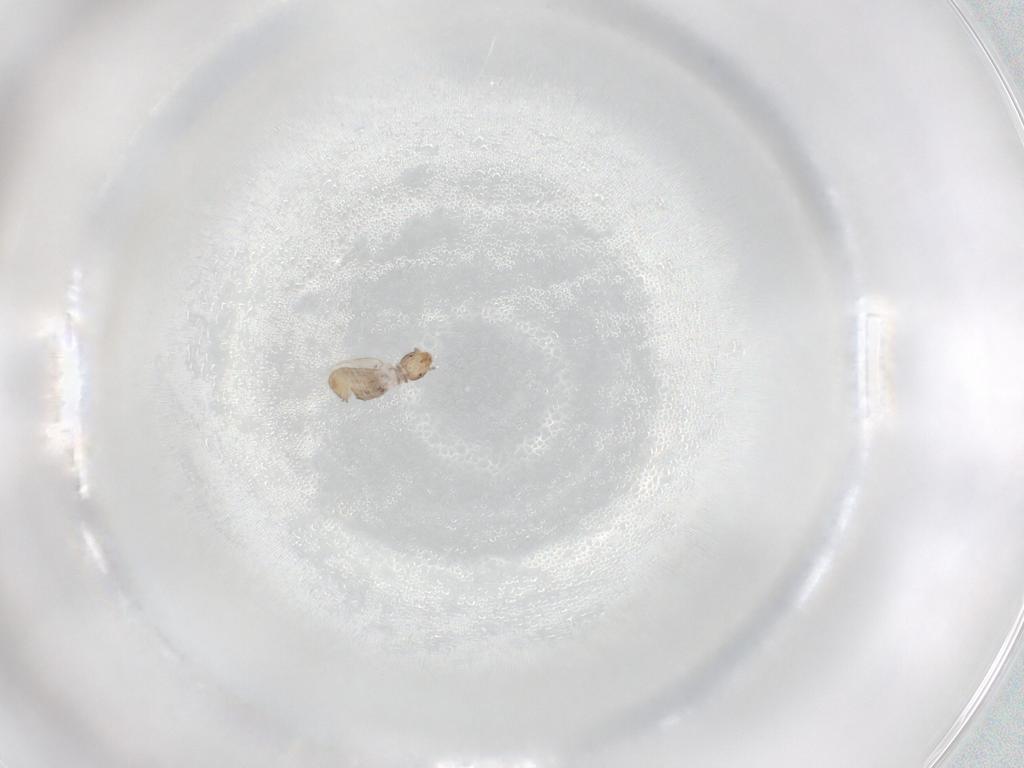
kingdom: Animalia
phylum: Arthropoda
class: Insecta
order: Psocodea
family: Liposcelididae
